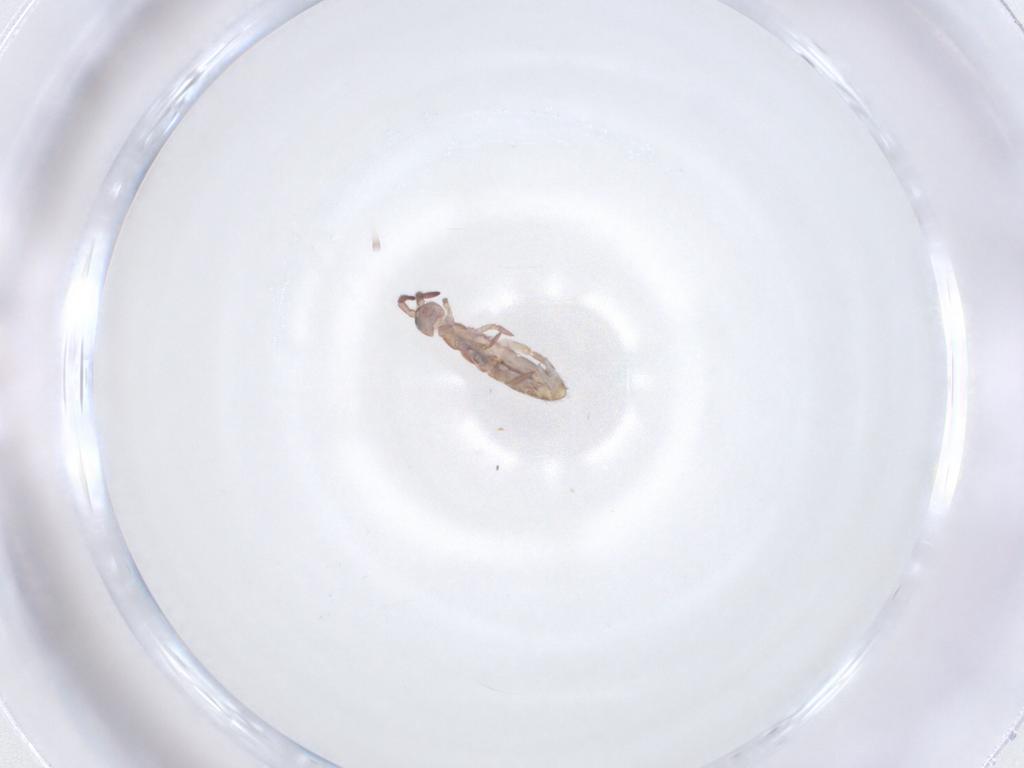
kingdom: Animalia
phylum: Arthropoda
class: Collembola
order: Entomobryomorpha
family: Isotomidae
